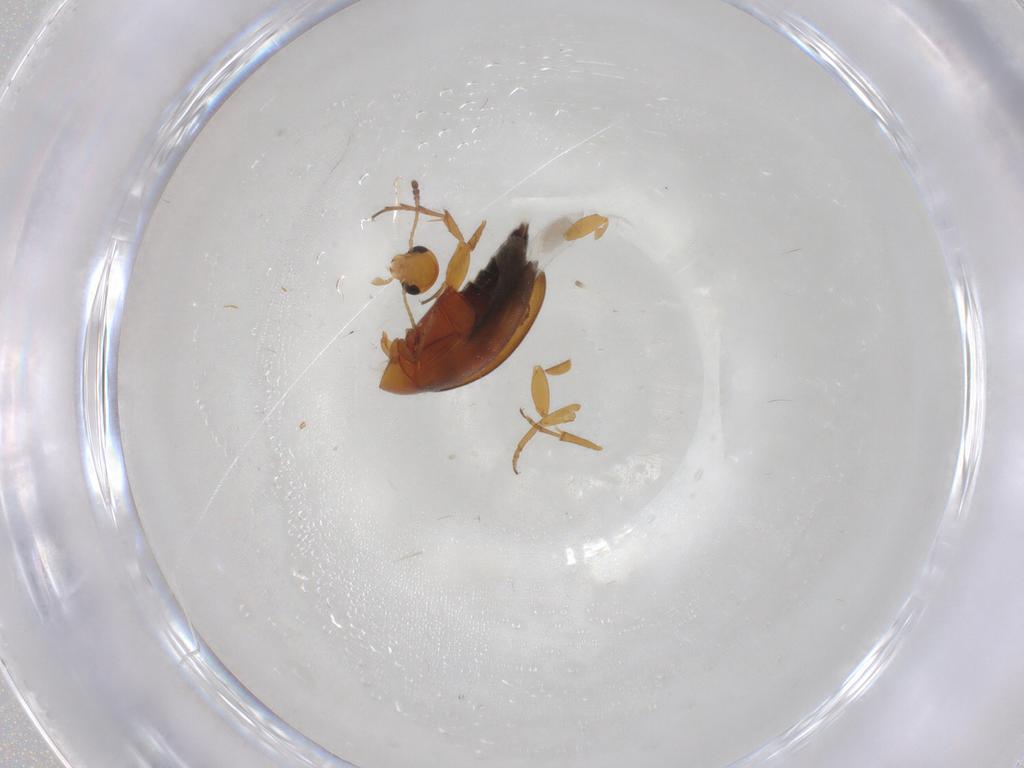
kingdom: Animalia
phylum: Arthropoda
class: Insecta
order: Coleoptera
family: Scraptiidae
